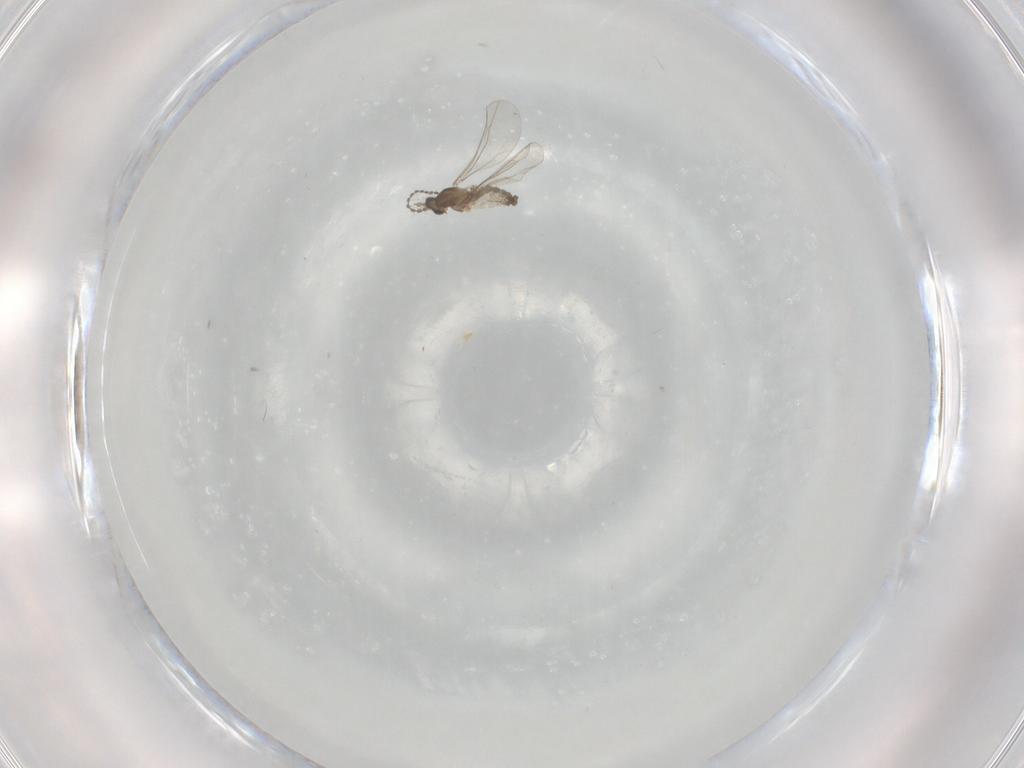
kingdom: Animalia
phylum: Arthropoda
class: Insecta
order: Diptera
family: Cecidomyiidae
